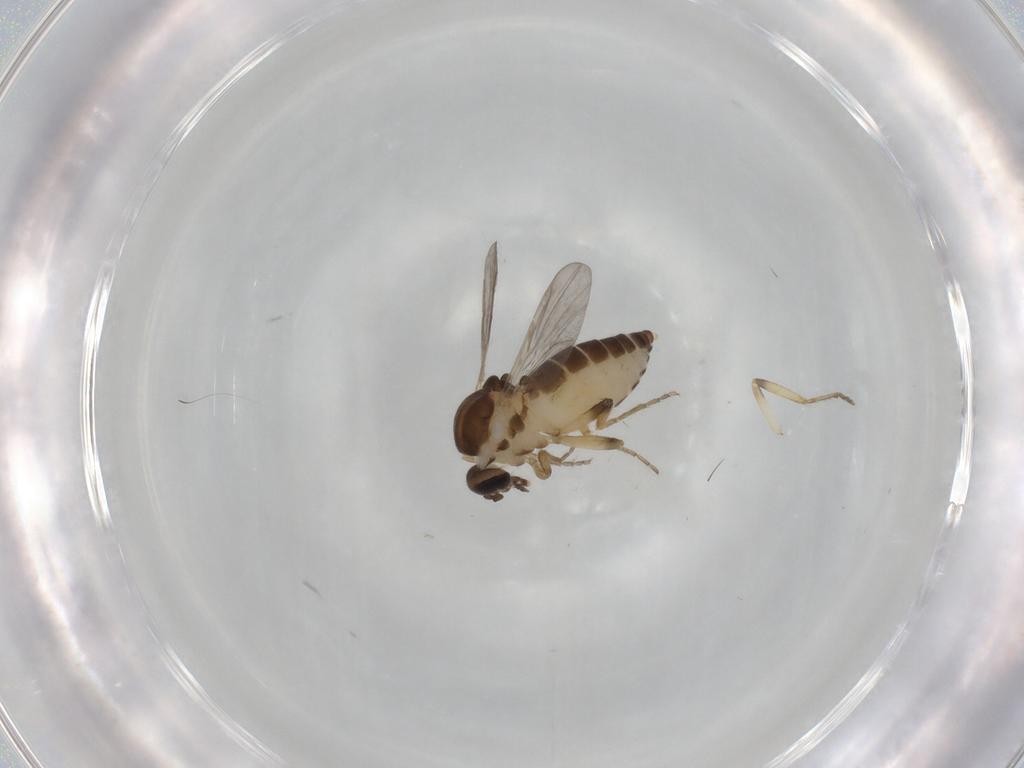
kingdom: Animalia
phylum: Arthropoda
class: Insecta
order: Diptera
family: Ceratopogonidae
